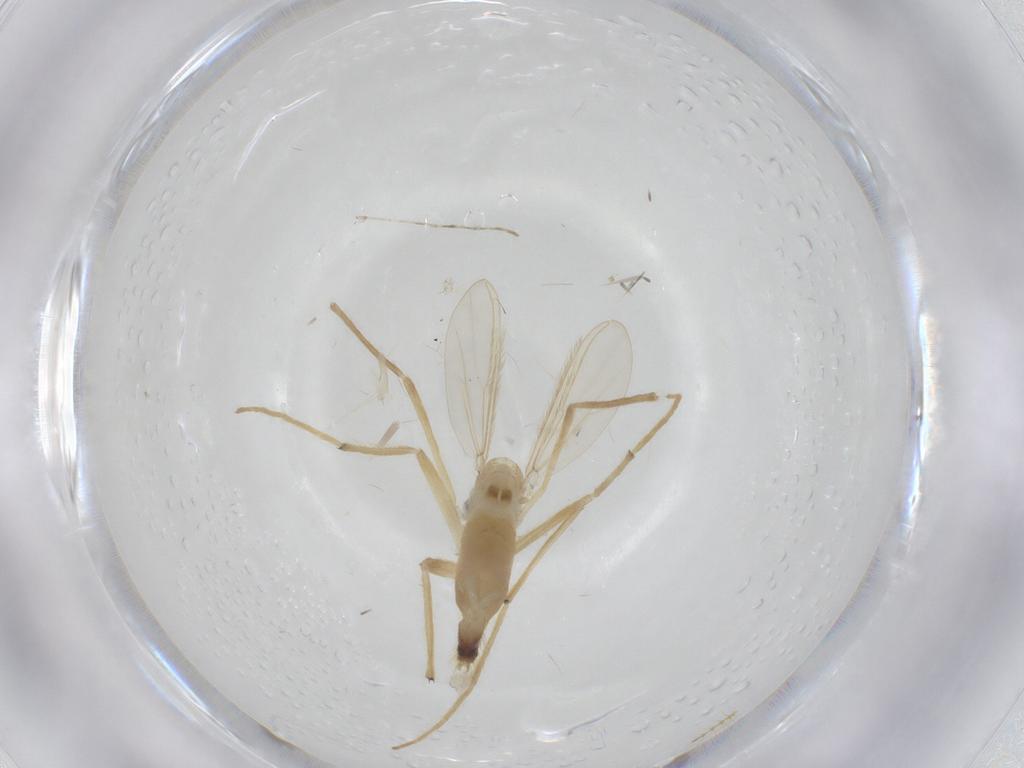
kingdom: Animalia
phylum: Arthropoda
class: Insecta
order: Diptera
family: Chironomidae
